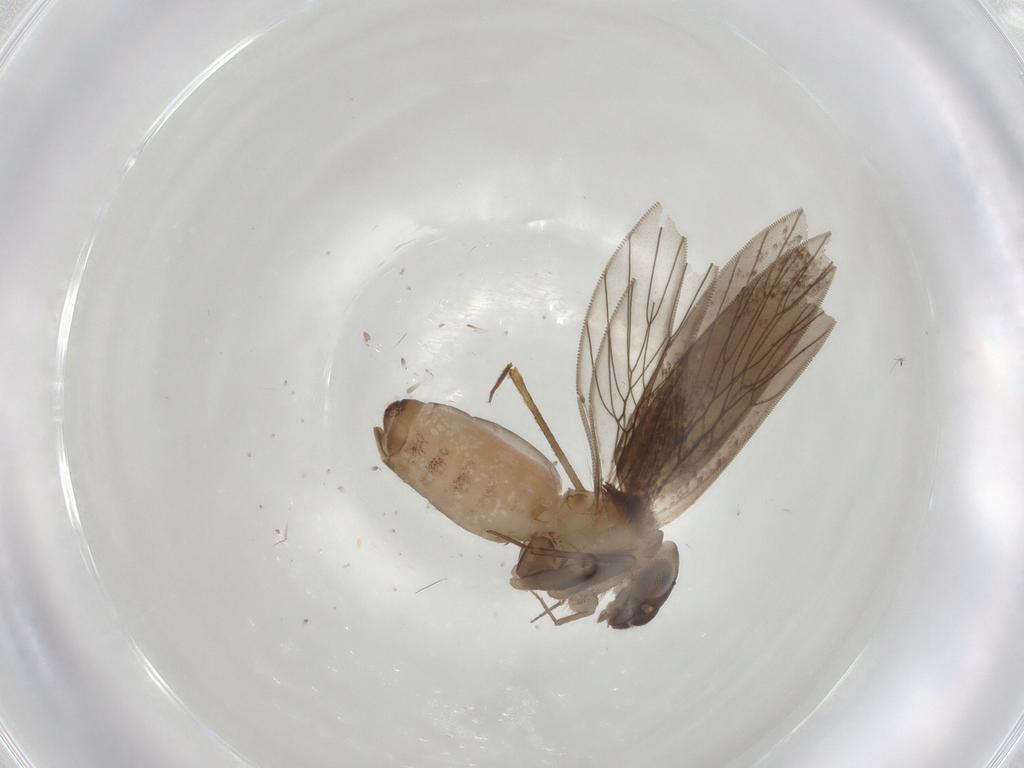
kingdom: Animalia
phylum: Arthropoda
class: Insecta
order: Psocodea
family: Lepidopsocidae
